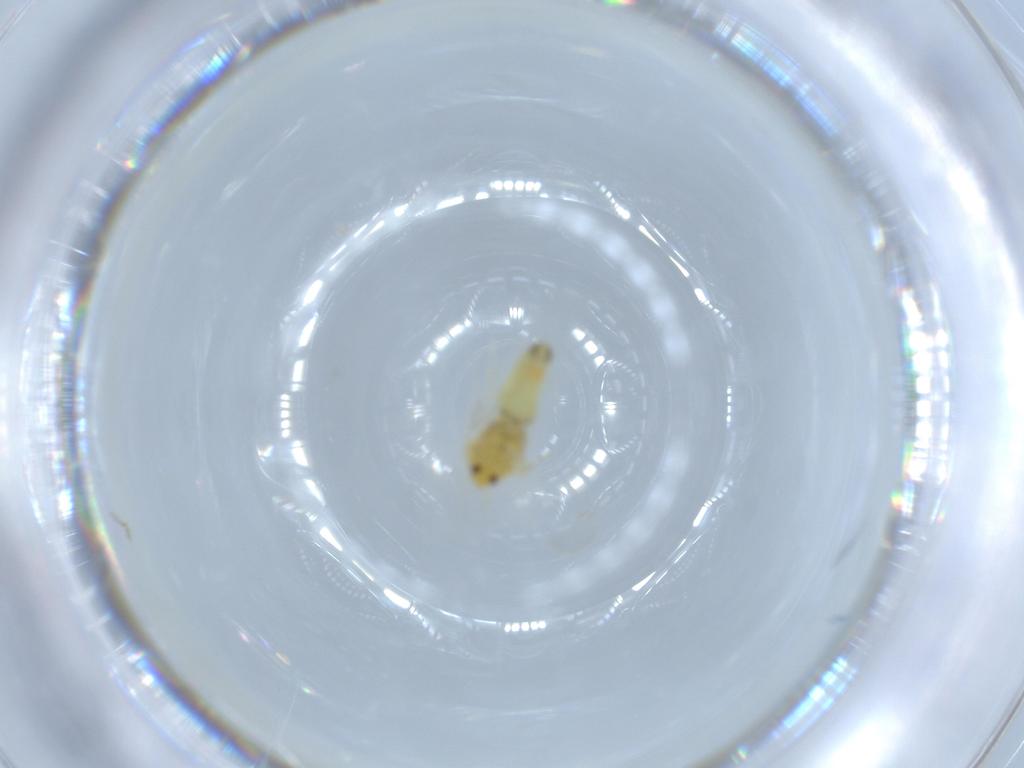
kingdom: Animalia
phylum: Arthropoda
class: Insecta
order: Hemiptera
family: Aleyrodidae
